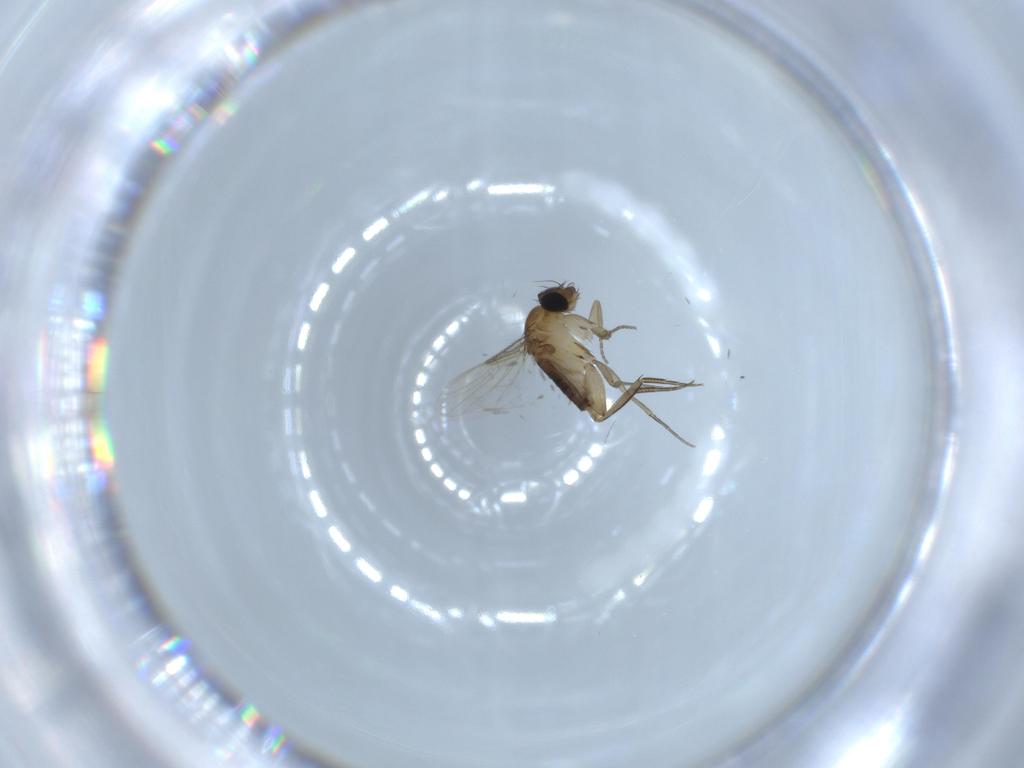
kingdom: Animalia
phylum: Arthropoda
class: Insecta
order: Diptera
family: Phoridae
